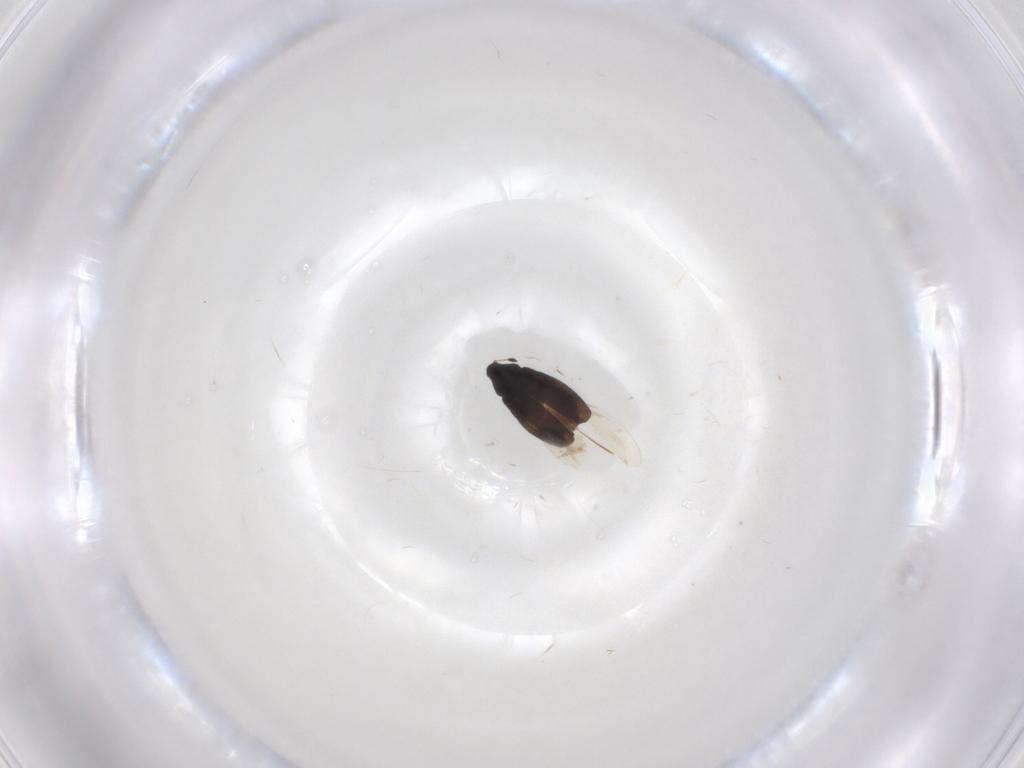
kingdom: Animalia
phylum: Arthropoda
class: Insecta
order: Coleoptera
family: Curculionidae
